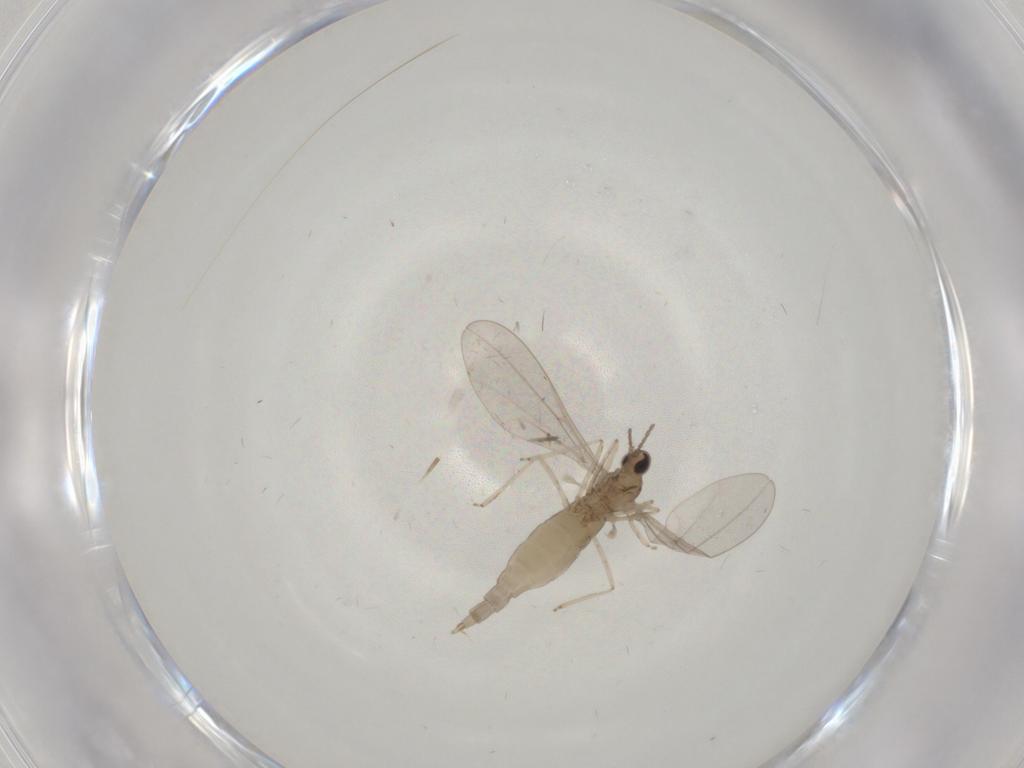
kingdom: Animalia
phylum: Arthropoda
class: Insecta
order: Diptera
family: Cecidomyiidae
